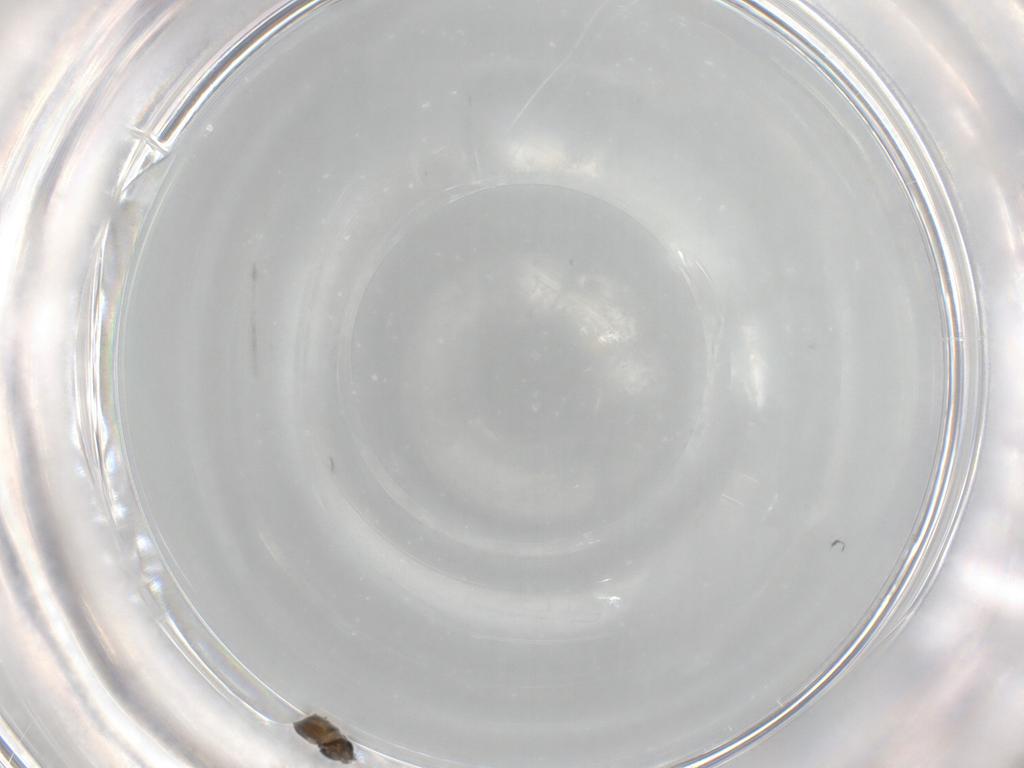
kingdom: Animalia
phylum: Arthropoda
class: Insecta
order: Diptera
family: Chironomidae
